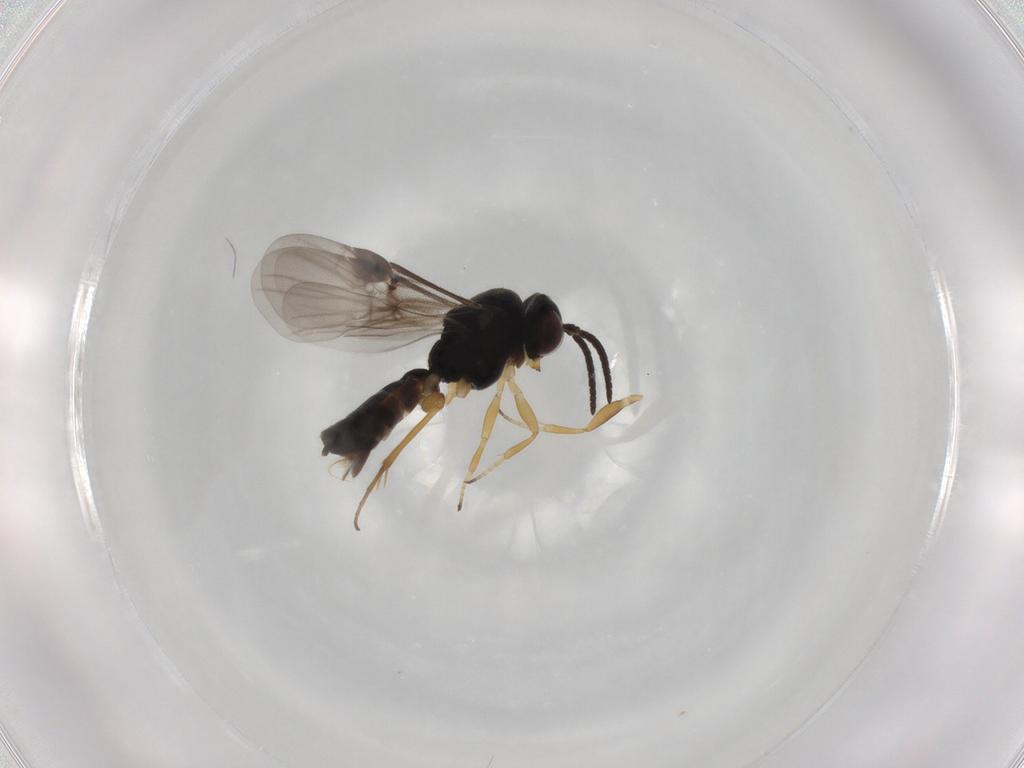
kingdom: Animalia
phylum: Arthropoda
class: Insecta
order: Hymenoptera
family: Braconidae
